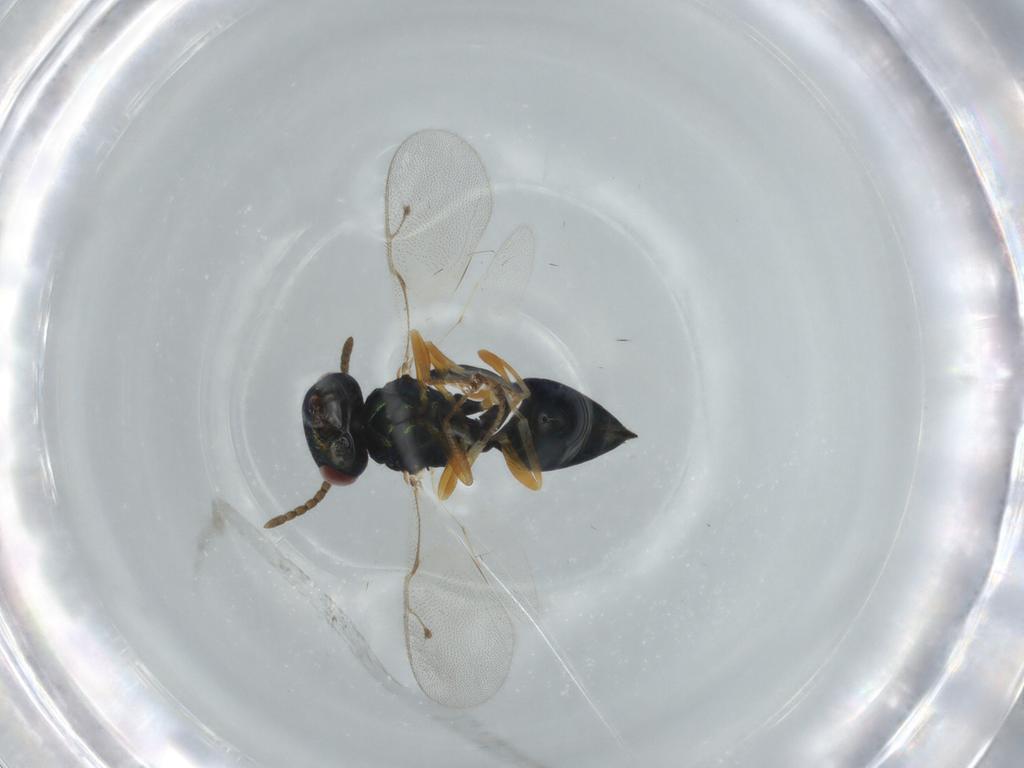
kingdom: Animalia
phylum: Arthropoda
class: Insecta
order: Hymenoptera
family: Pteromalidae
